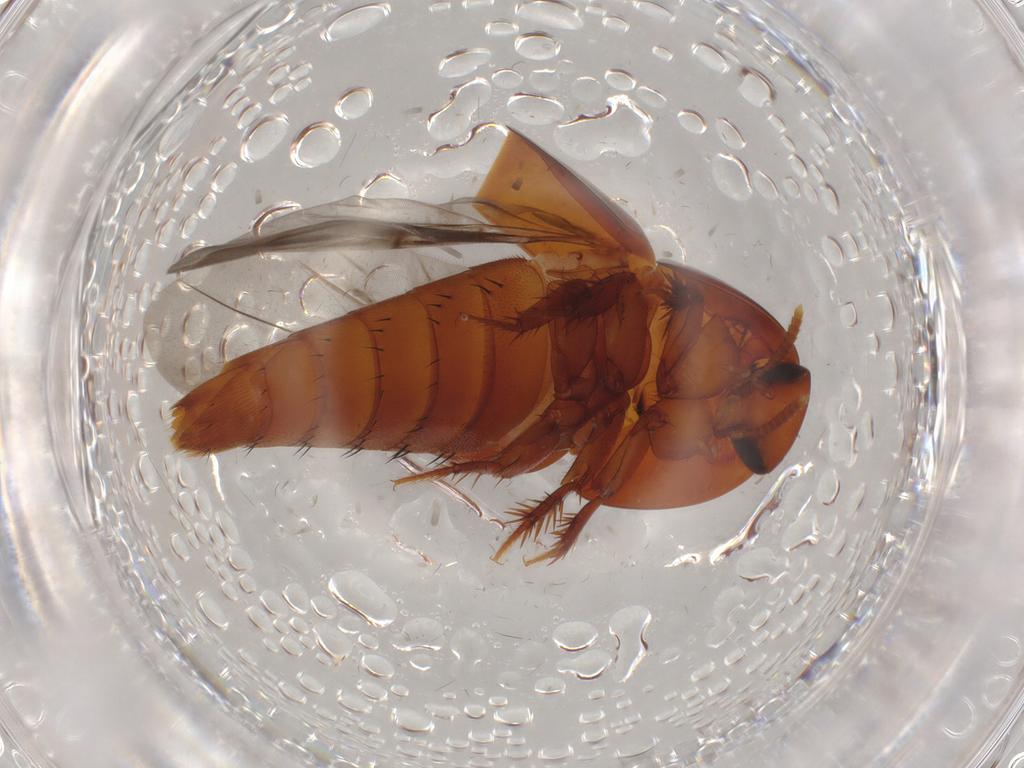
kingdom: Animalia
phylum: Arthropoda
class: Insecta
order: Coleoptera
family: Staphylinidae
